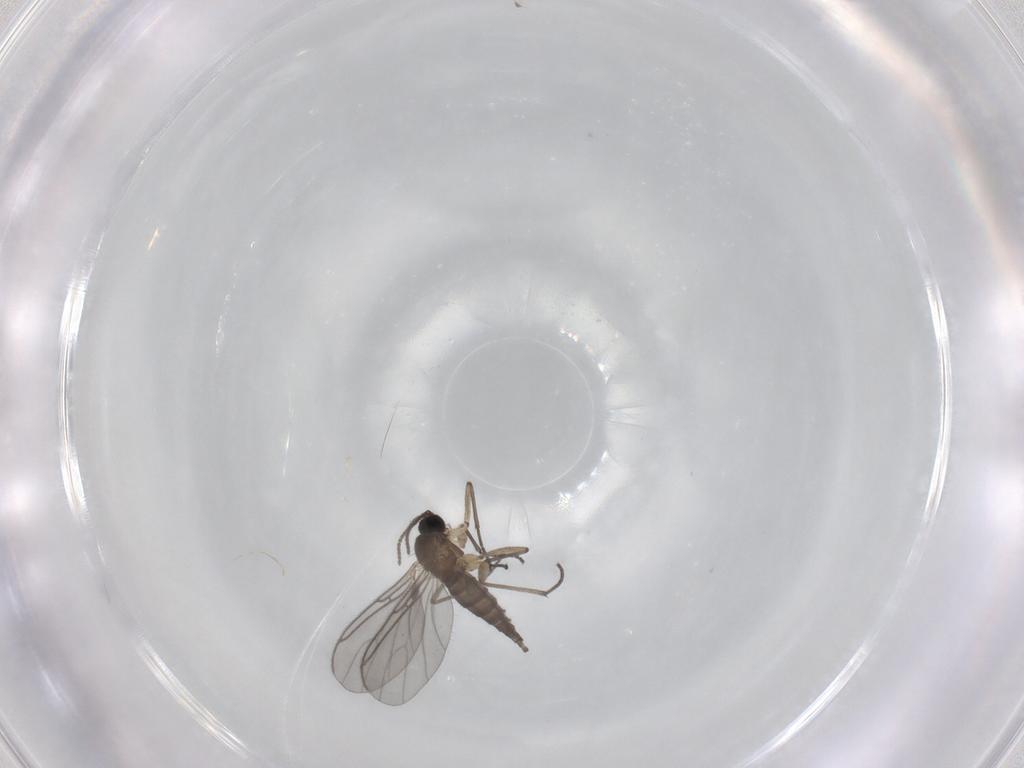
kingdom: Animalia
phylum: Arthropoda
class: Insecta
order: Diptera
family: Sciaridae
